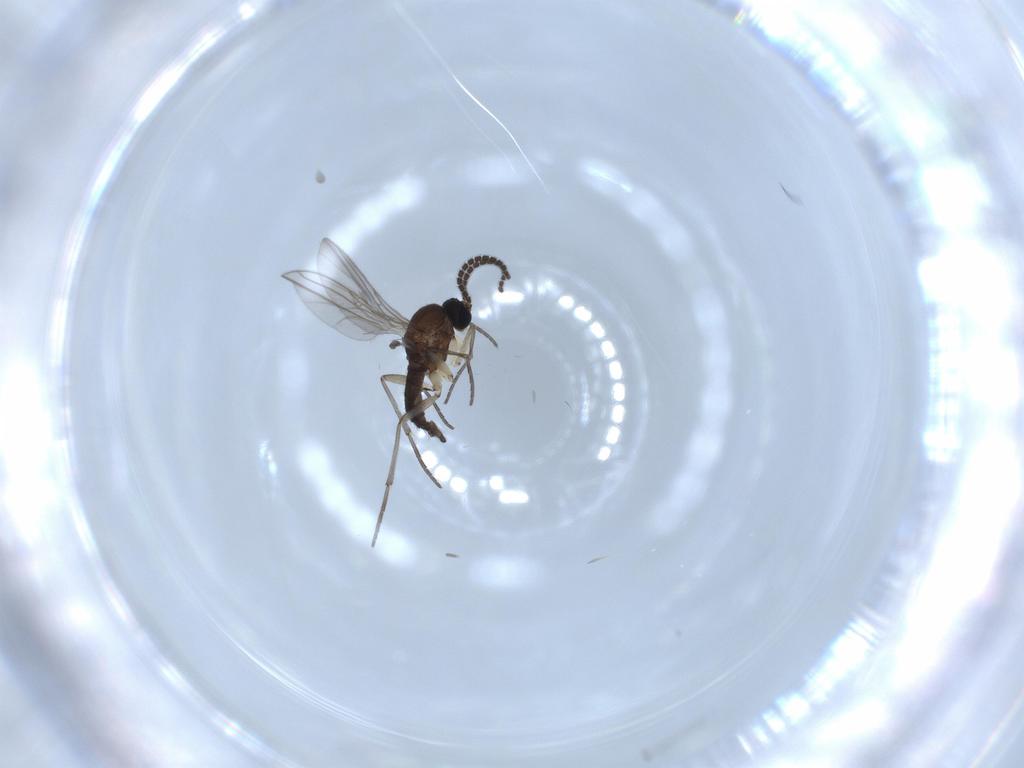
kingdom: Animalia
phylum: Arthropoda
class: Insecta
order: Diptera
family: Sciaridae
